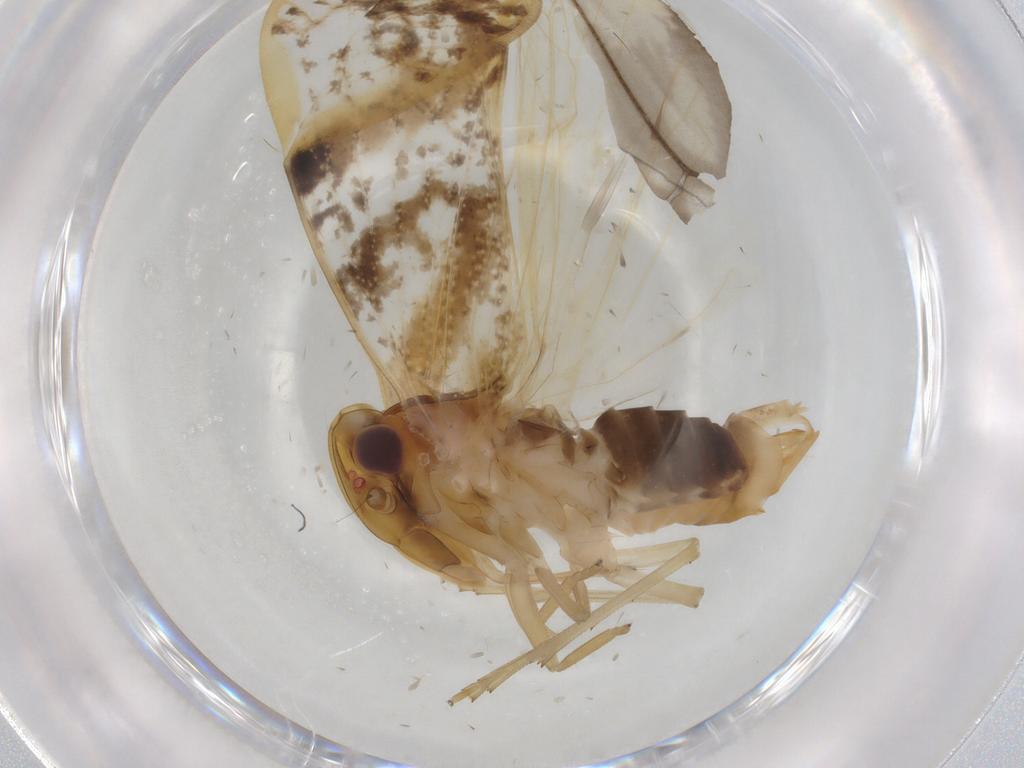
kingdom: Animalia
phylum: Arthropoda
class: Insecta
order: Hemiptera
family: Cixiidae
